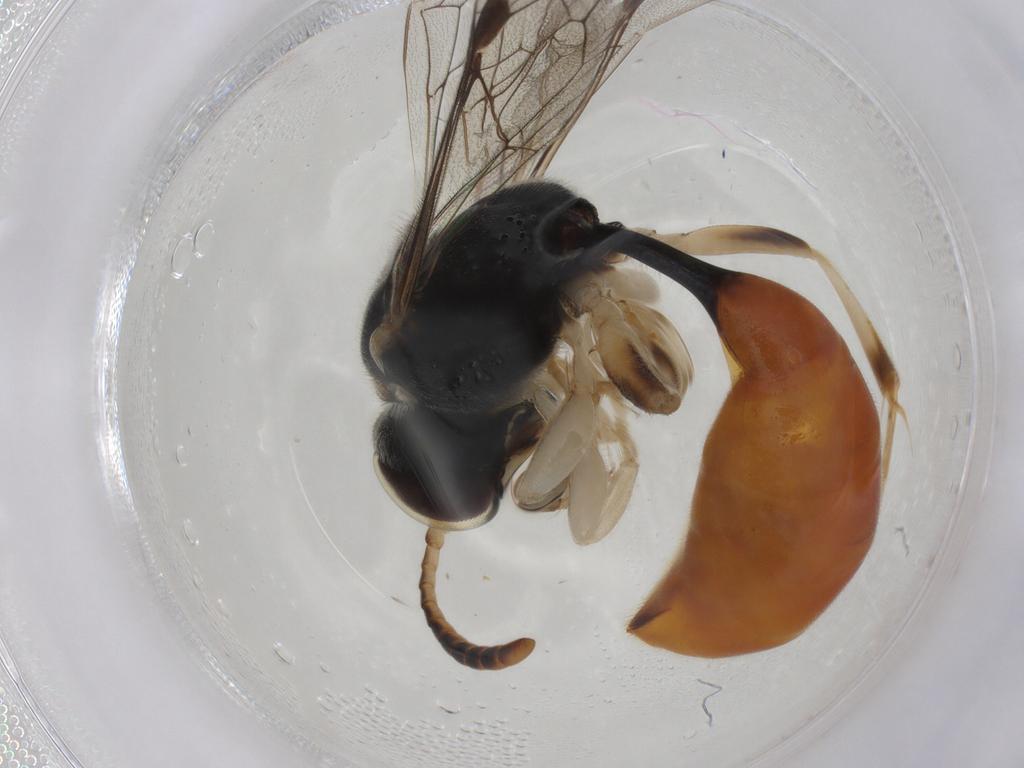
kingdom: Animalia
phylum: Arthropoda
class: Insecta
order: Hymenoptera
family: Crabronidae
